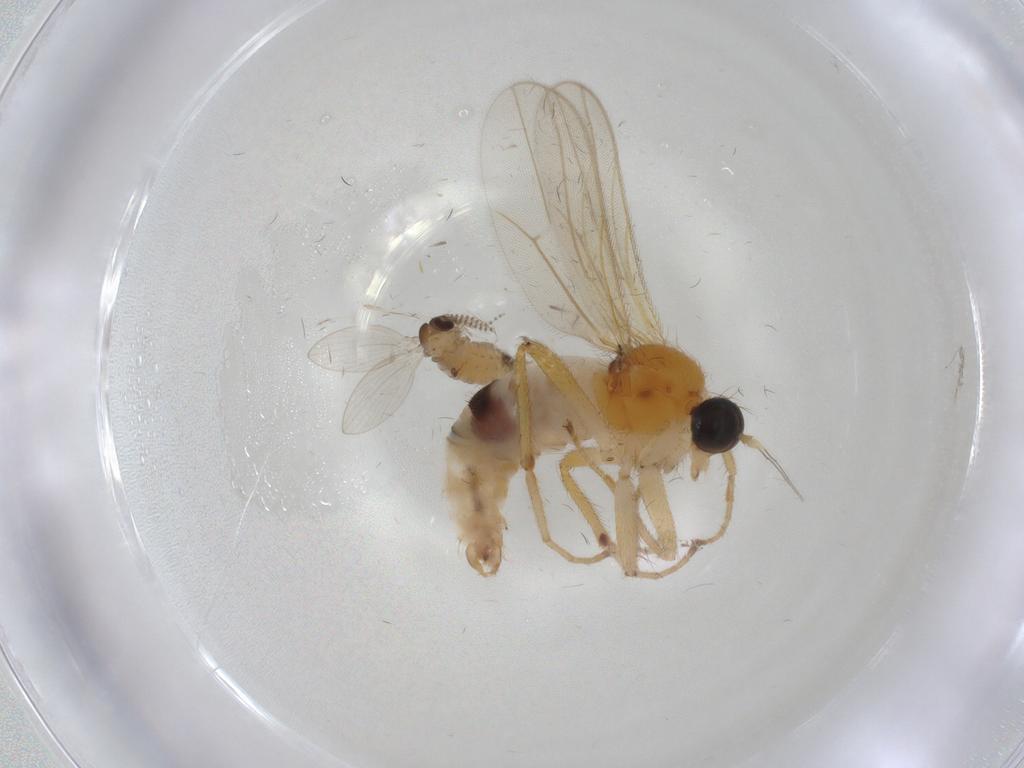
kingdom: Animalia
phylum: Arthropoda
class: Insecta
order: Diptera
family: Hybotidae
